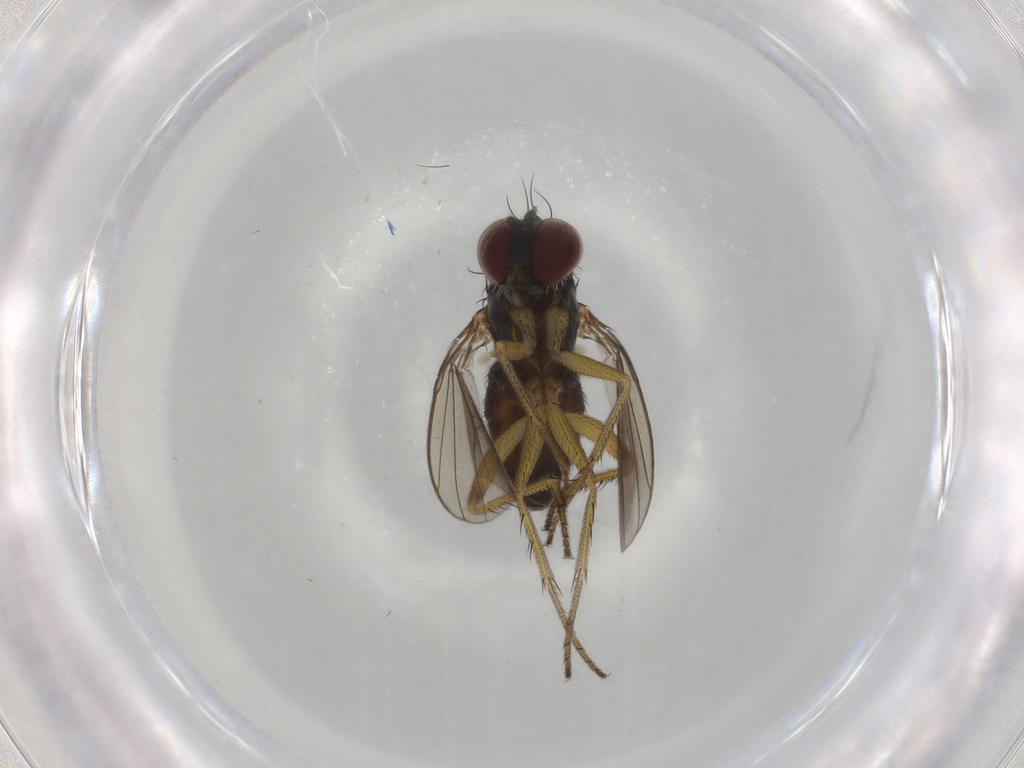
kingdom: Animalia
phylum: Arthropoda
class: Insecta
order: Diptera
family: Dolichopodidae
